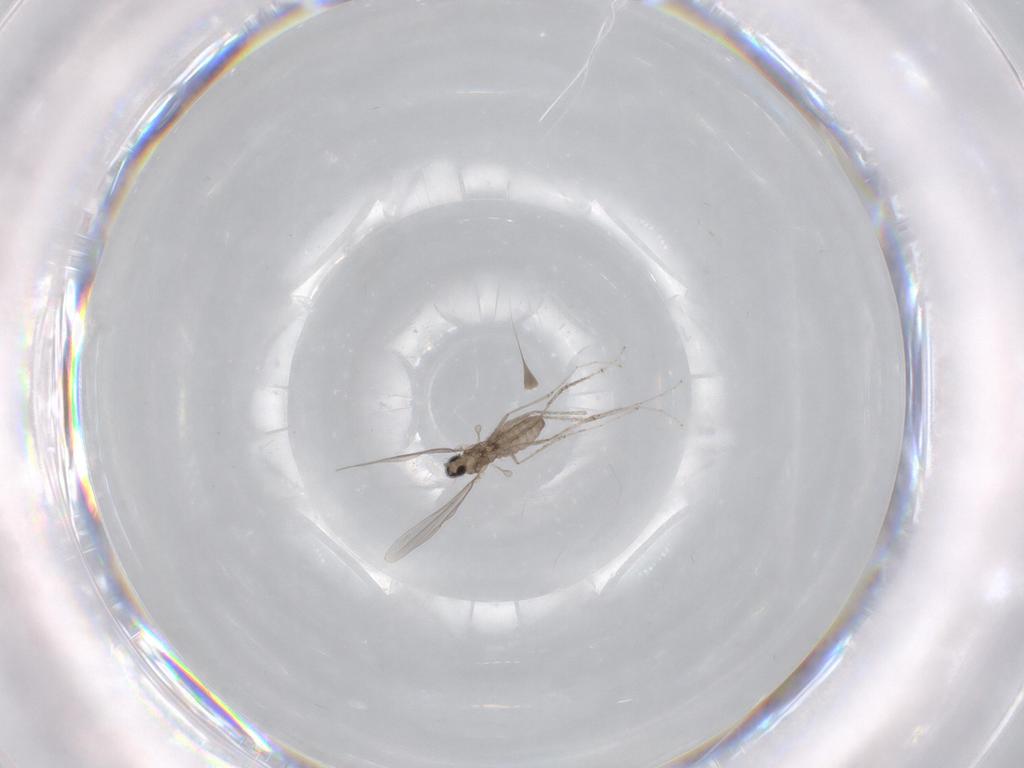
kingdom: Animalia
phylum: Arthropoda
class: Insecta
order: Diptera
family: Cecidomyiidae
